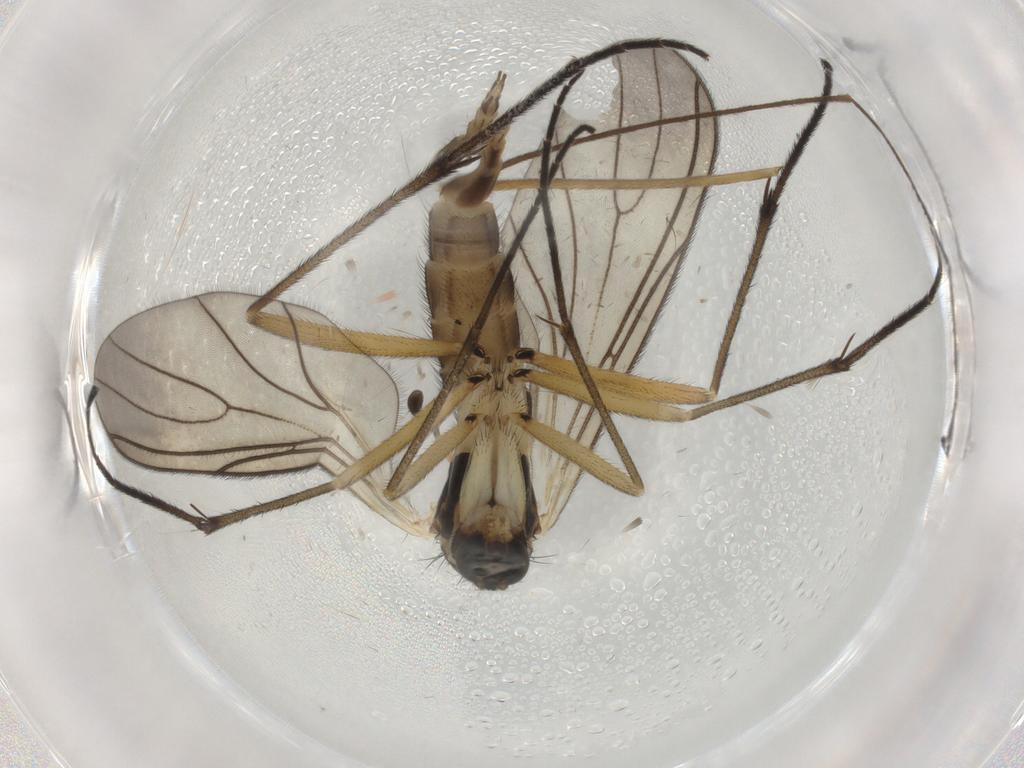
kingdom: Animalia
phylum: Arthropoda
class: Insecta
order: Diptera
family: Sciaridae
